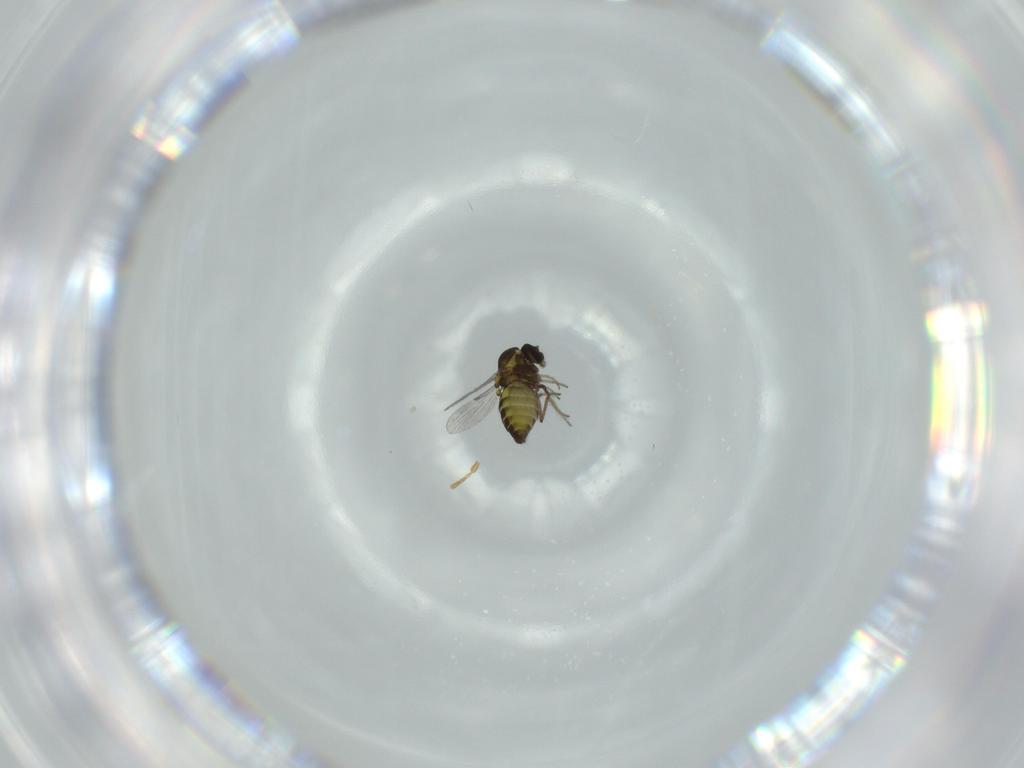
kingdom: Animalia
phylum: Arthropoda
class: Insecta
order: Diptera
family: Ceratopogonidae
